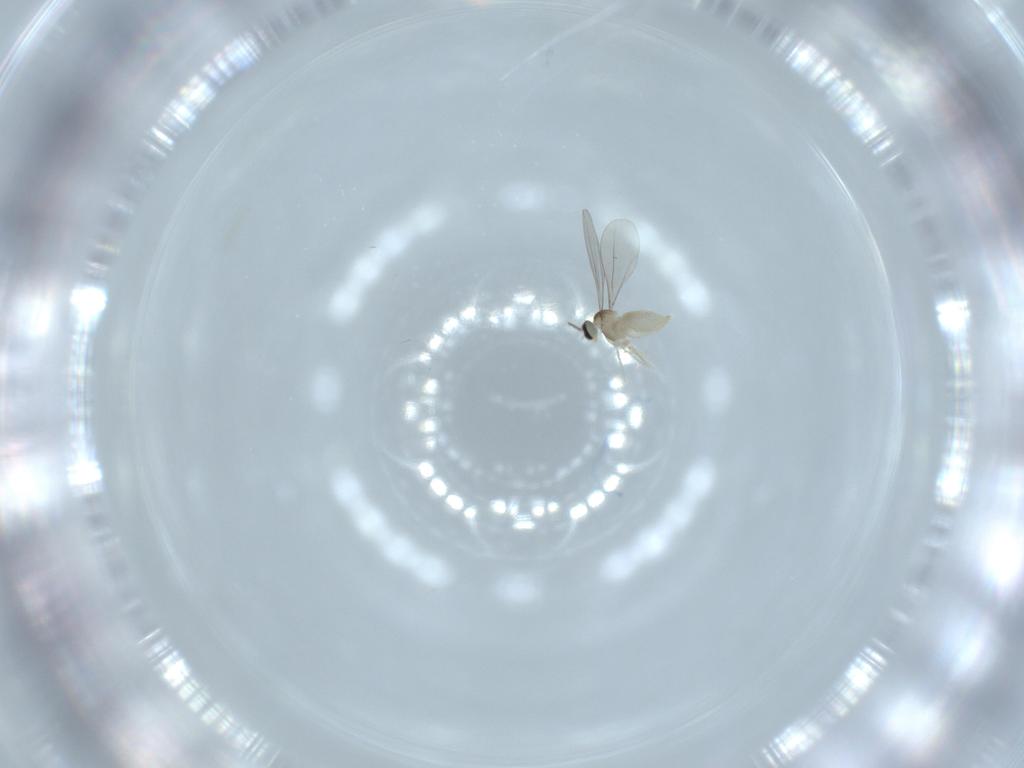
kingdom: Animalia
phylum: Arthropoda
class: Insecta
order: Diptera
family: Cecidomyiidae
